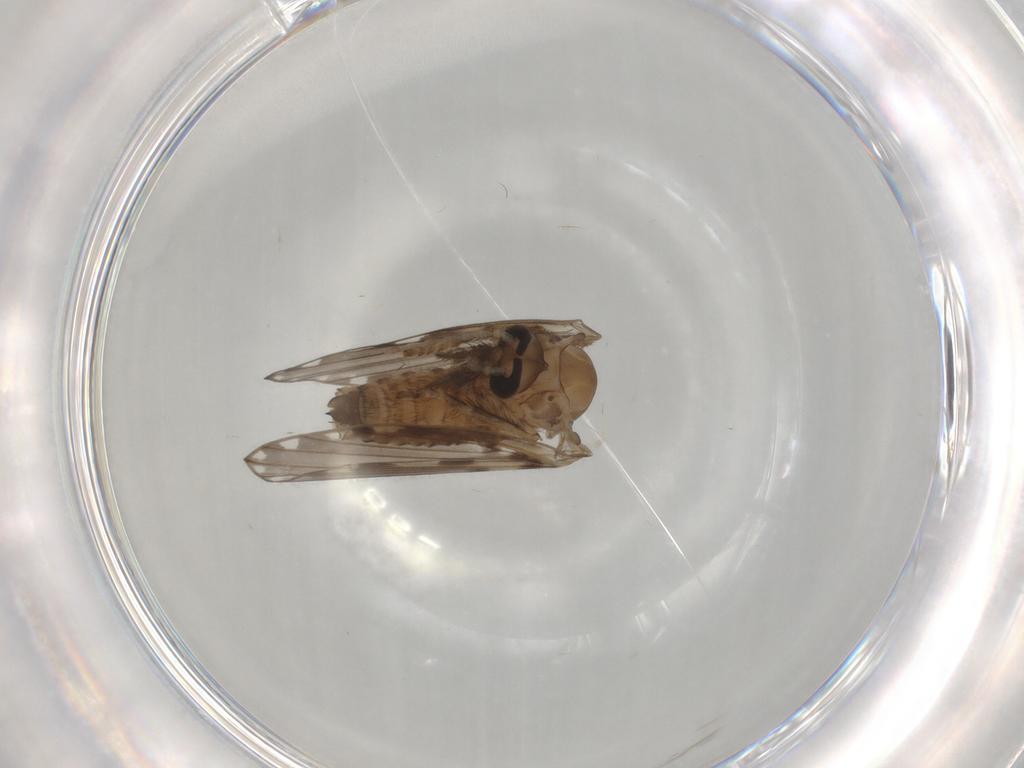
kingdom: Animalia
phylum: Arthropoda
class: Insecta
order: Diptera
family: Psychodidae
